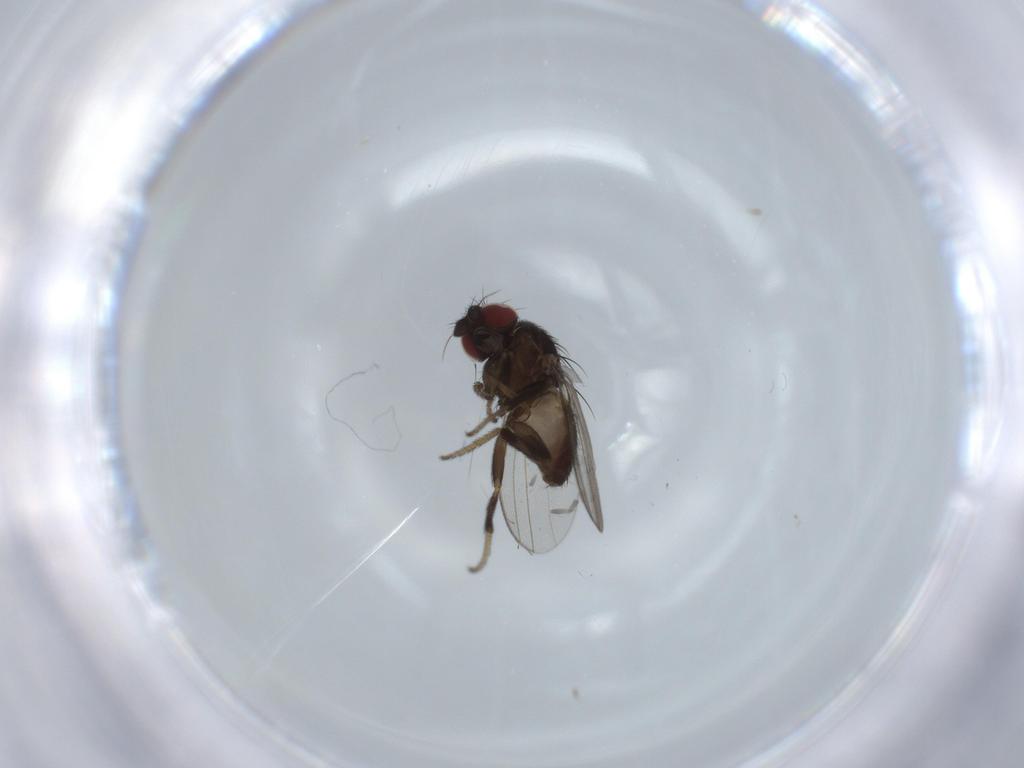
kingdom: Animalia
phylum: Arthropoda
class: Insecta
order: Diptera
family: Milichiidae
